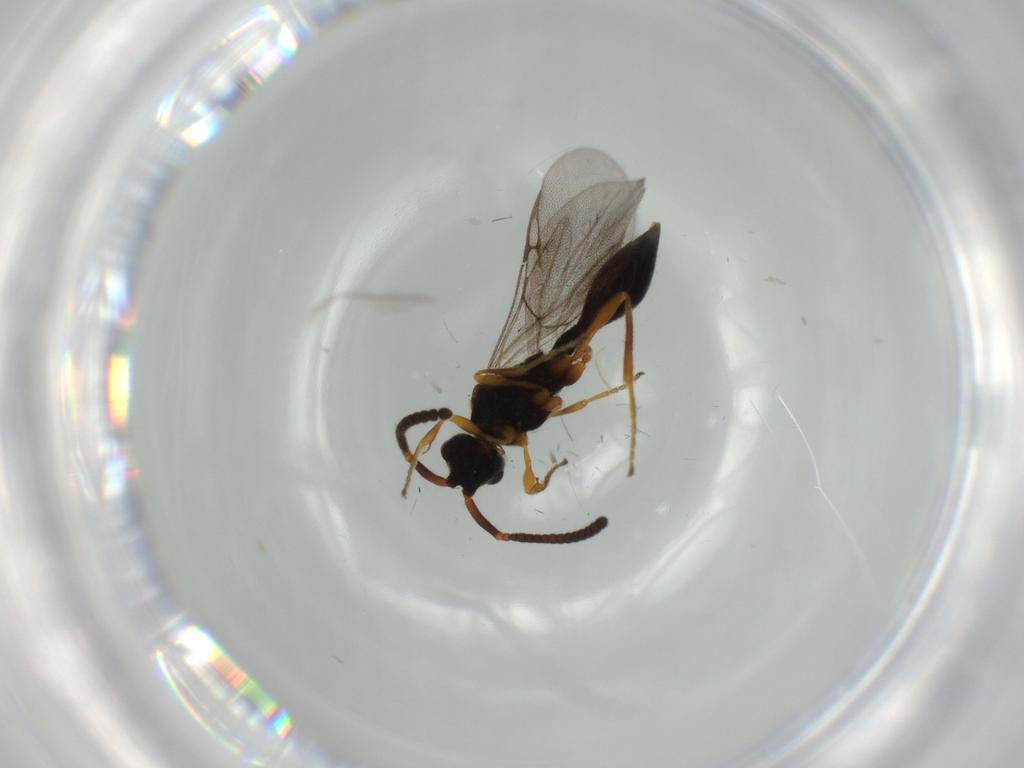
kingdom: Animalia
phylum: Arthropoda
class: Insecta
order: Hymenoptera
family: Diapriidae
